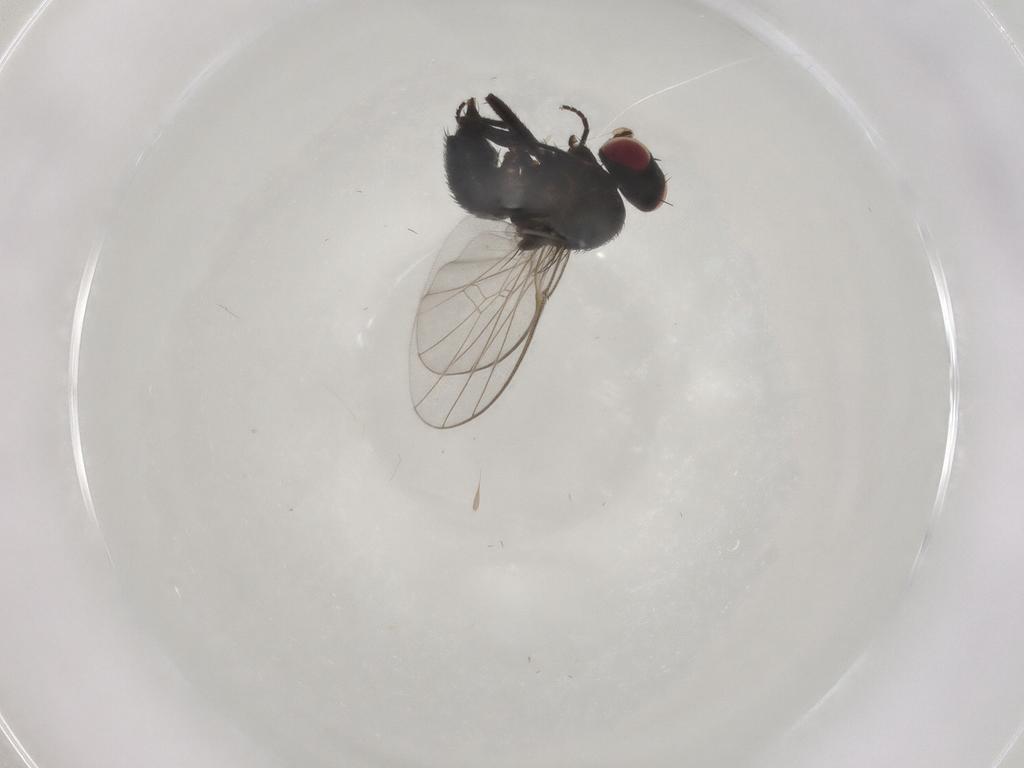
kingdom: Animalia
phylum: Arthropoda
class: Insecta
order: Diptera
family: Agromyzidae
